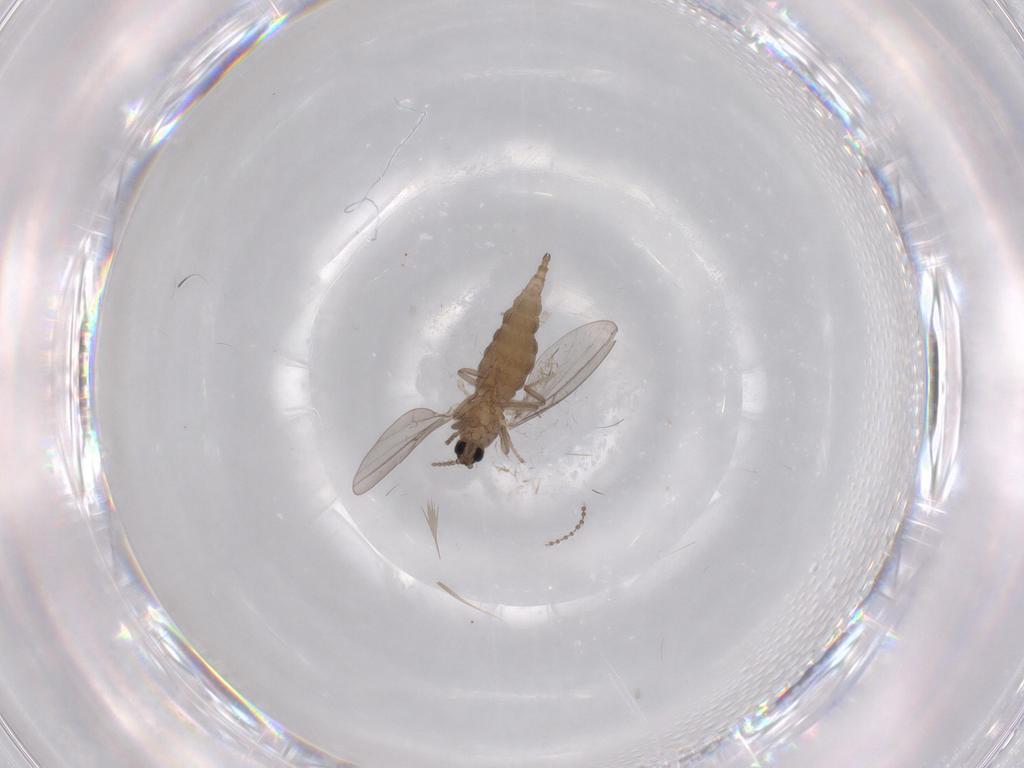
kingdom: Animalia
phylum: Arthropoda
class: Insecta
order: Diptera
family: Cecidomyiidae
